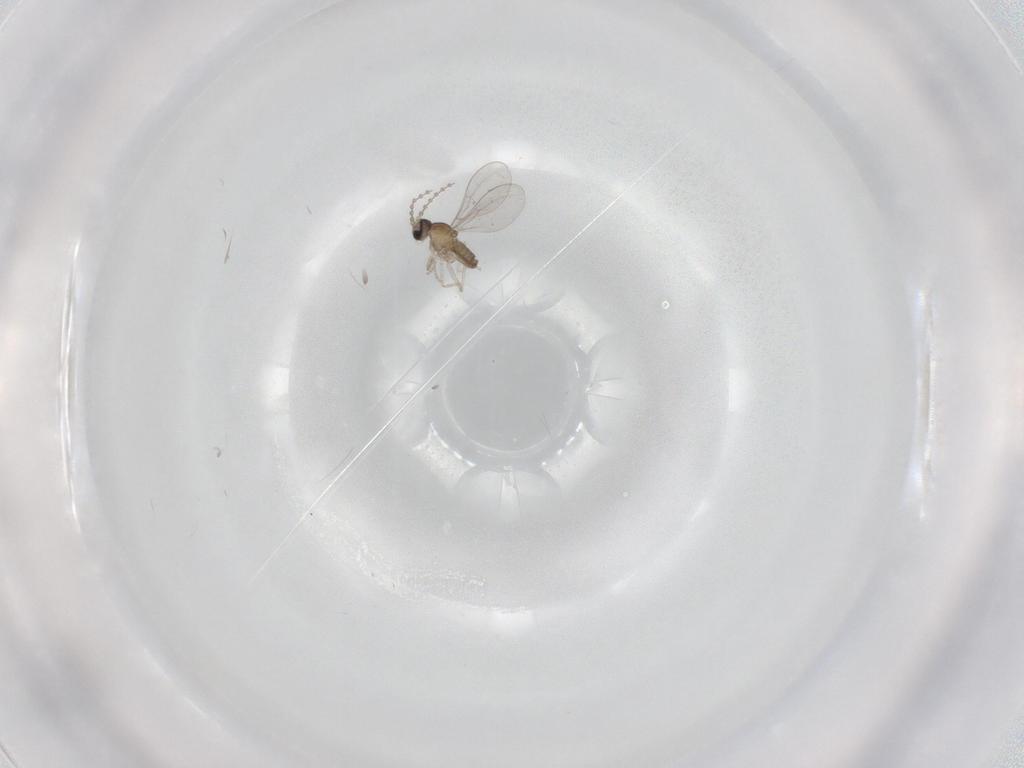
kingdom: Animalia
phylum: Arthropoda
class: Insecta
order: Diptera
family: Cecidomyiidae
